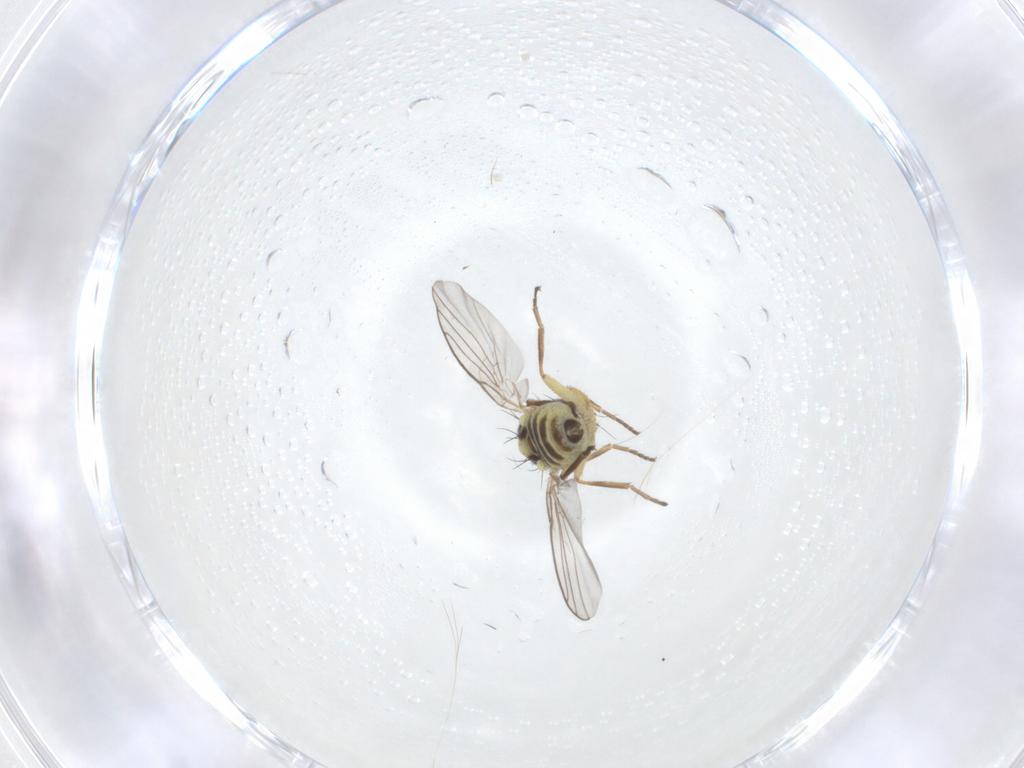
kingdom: Animalia
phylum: Arthropoda
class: Insecta
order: Diptera
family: Agromyzidae
